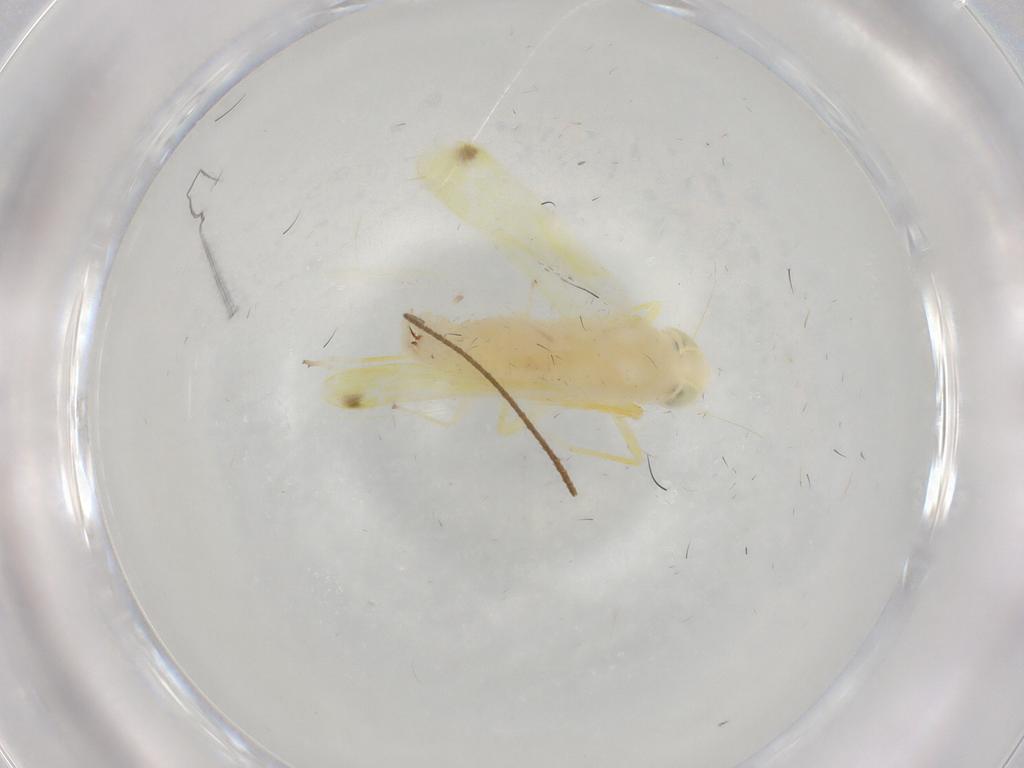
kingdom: Animalia
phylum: Arthropoda
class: Insecta
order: Hemiptera
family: Cicadellidae
